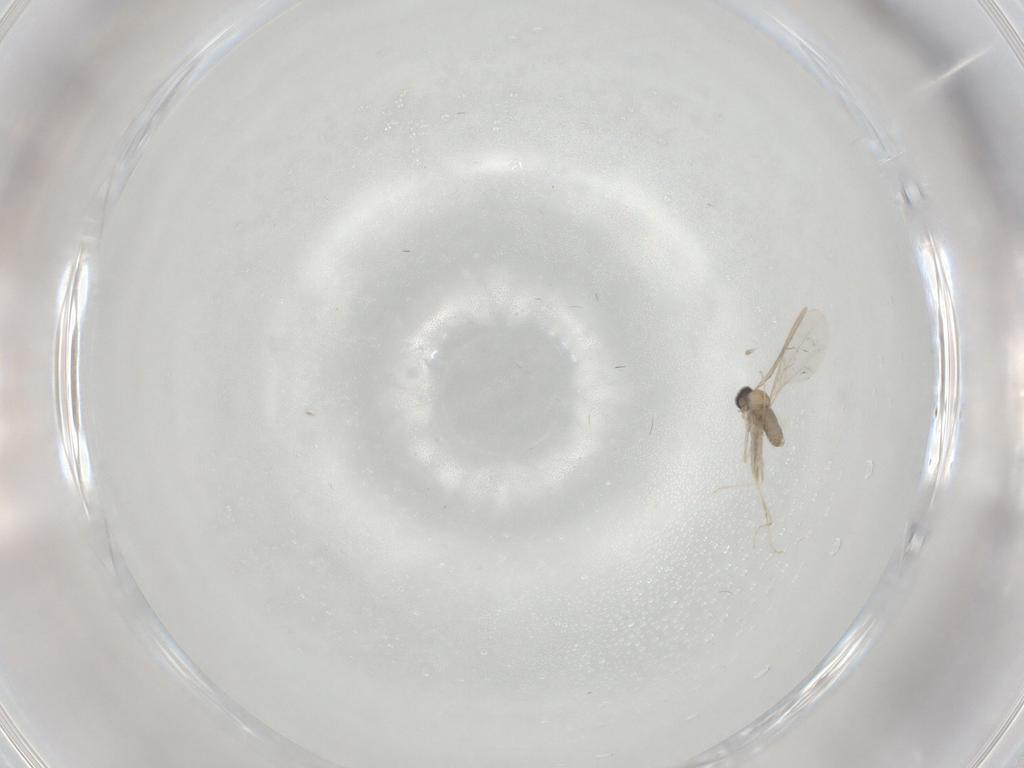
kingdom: Animalia
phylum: Arthropoda
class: Insecta
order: Diptera
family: Cecidomyiidae
